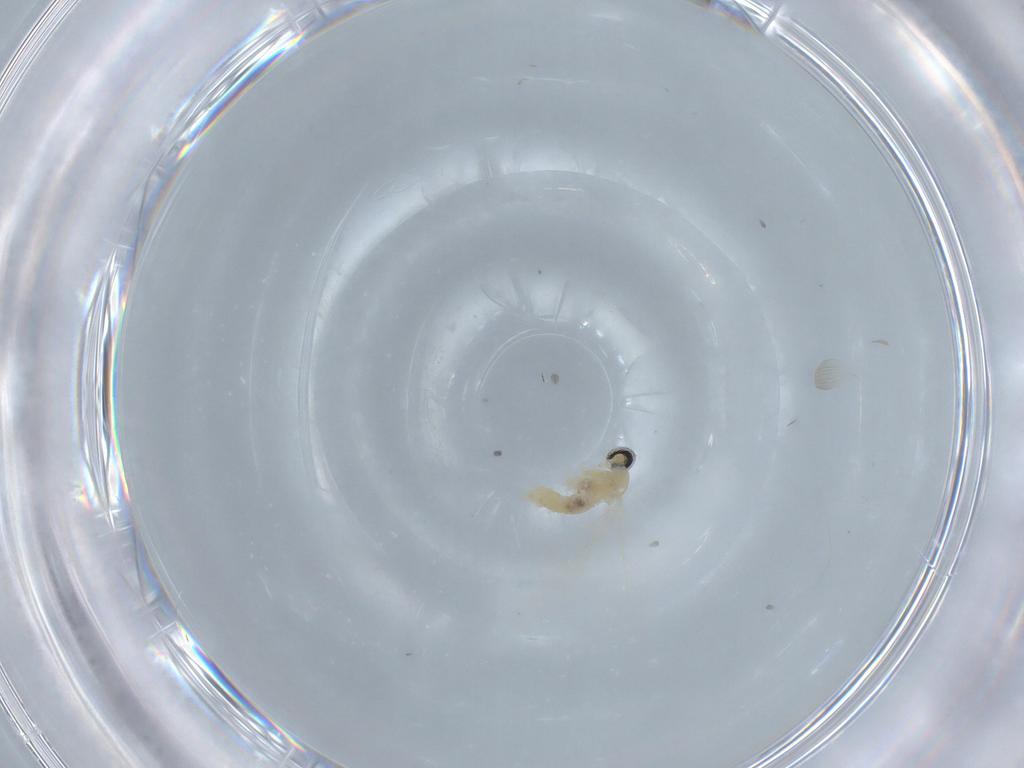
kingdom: Animalia
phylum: Arthropoda
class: Insecta
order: Diptera
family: Cecidomyiidae
